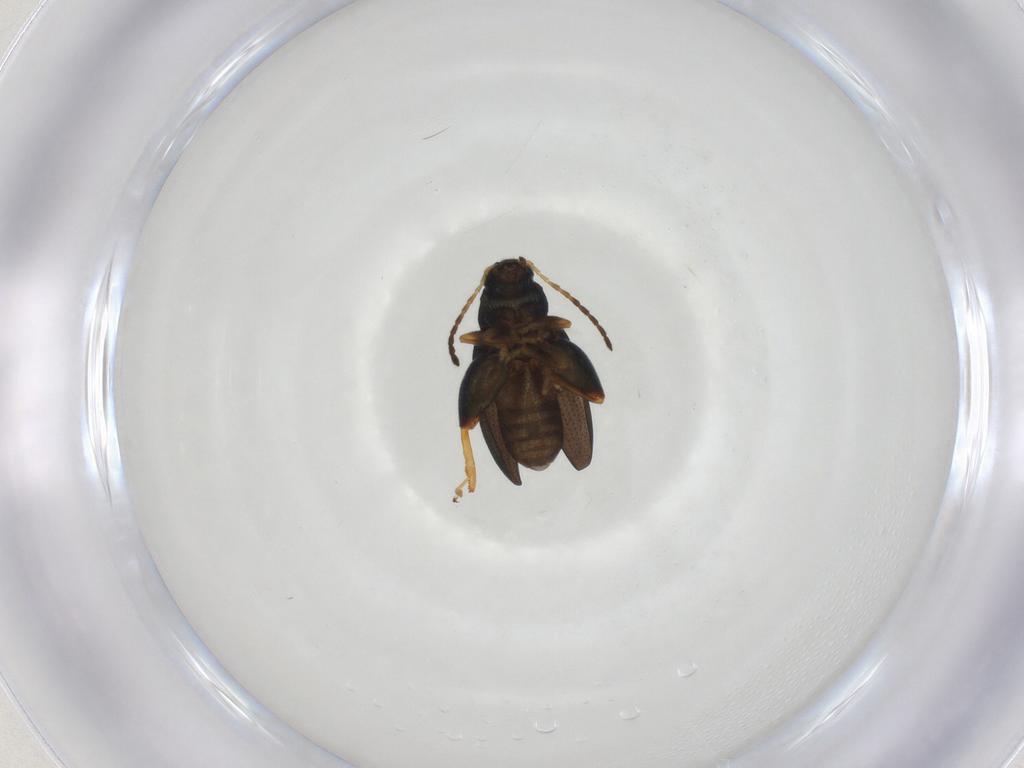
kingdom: Animalia
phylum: Arthropoda
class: Insecta
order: Coleoptera
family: Chrysomelidae
